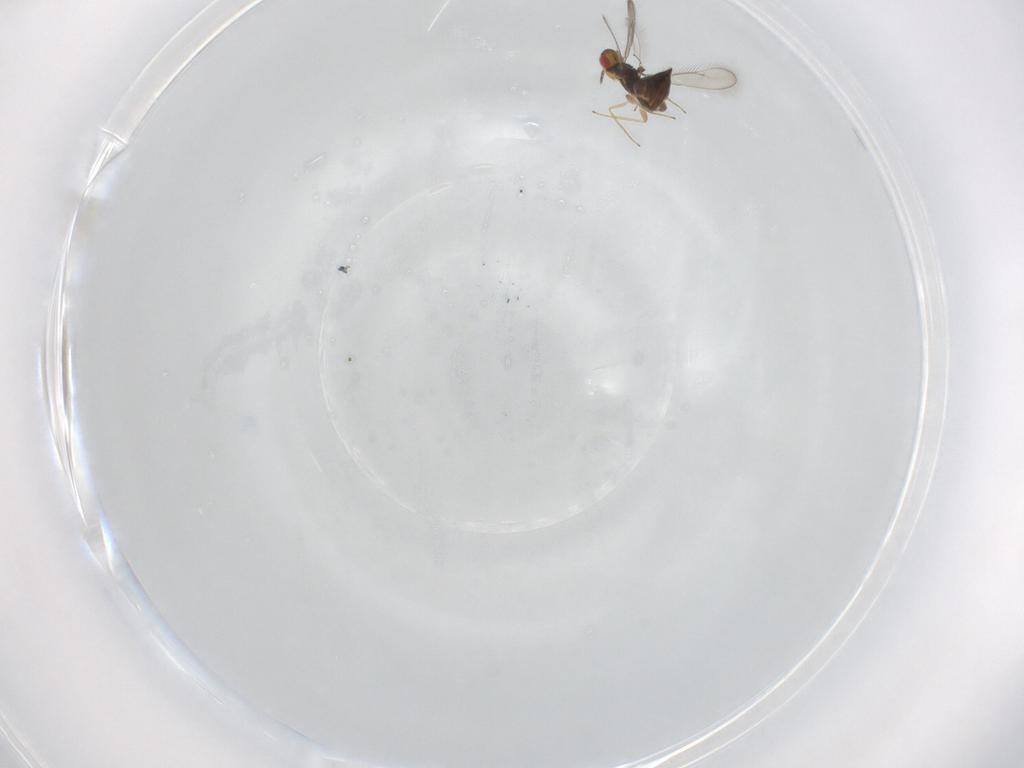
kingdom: Animalia
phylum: Arthropoda
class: Insecta
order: Hymenoptera
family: Eulophidae
